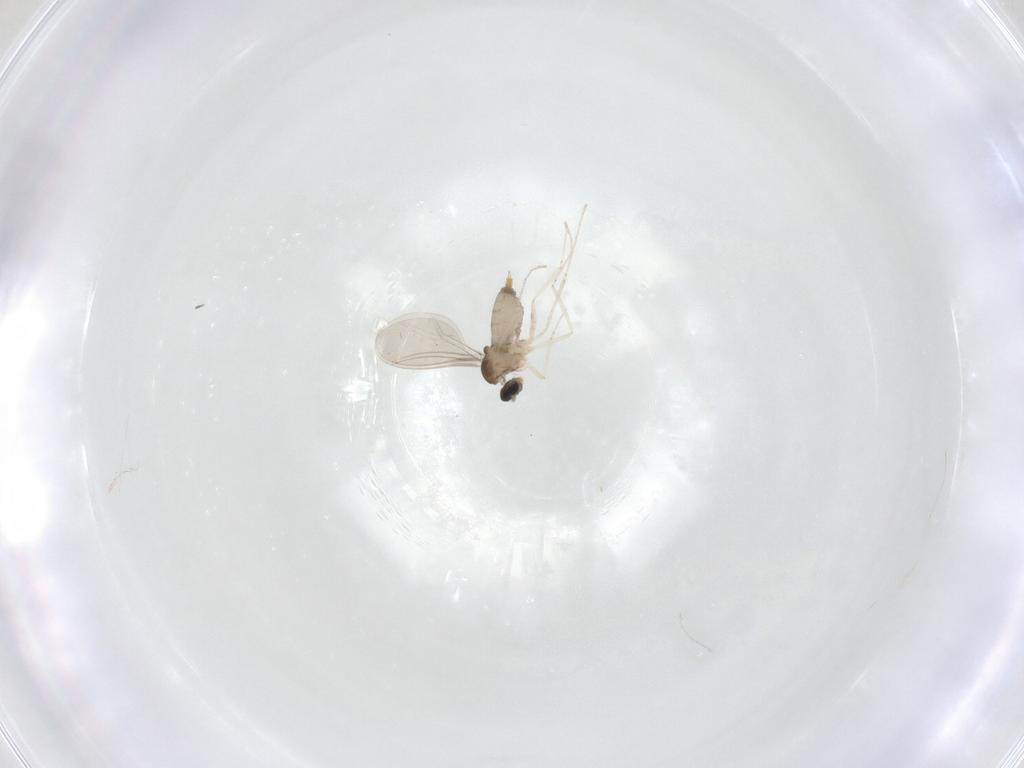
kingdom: Animalia
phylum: Arthropoda
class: Insecta
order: Diptera
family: Cecidomyiidae
